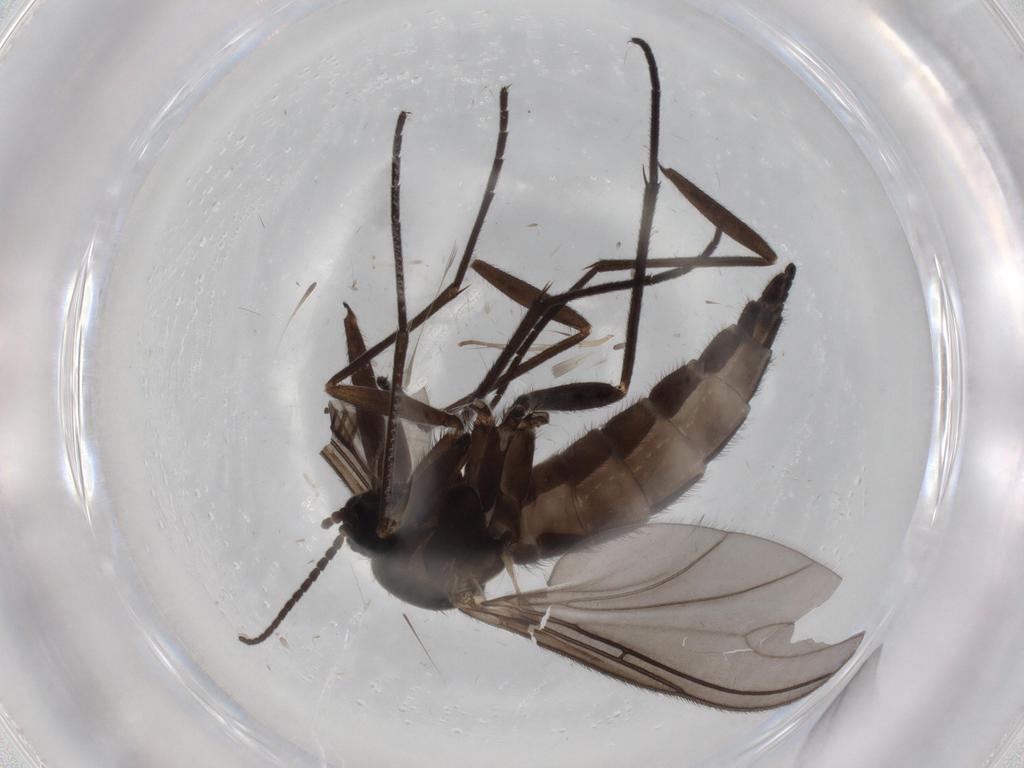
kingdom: Animalia
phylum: Arthropoda
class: Insecta
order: Diptera
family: Sciaridae
